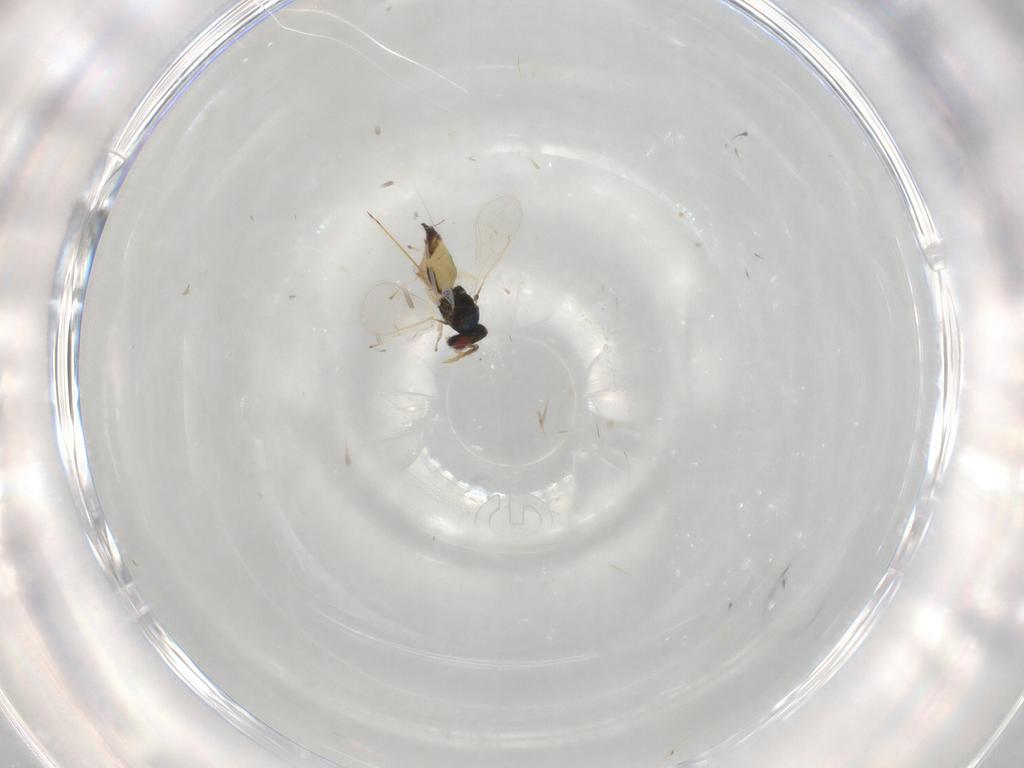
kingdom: Animalia
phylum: Arthropoda
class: Insecta
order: Hymenoptera
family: Eulophidae
